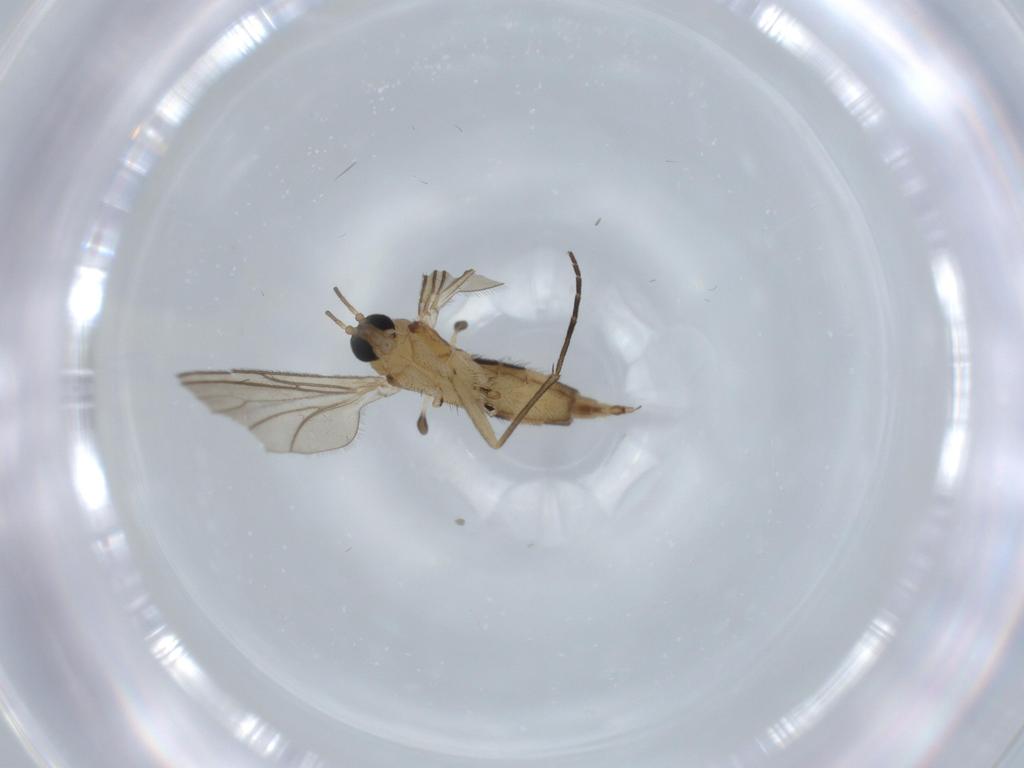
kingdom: Animalia
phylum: Arthropoda
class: Insecta
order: Diptera
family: Sciaridae
